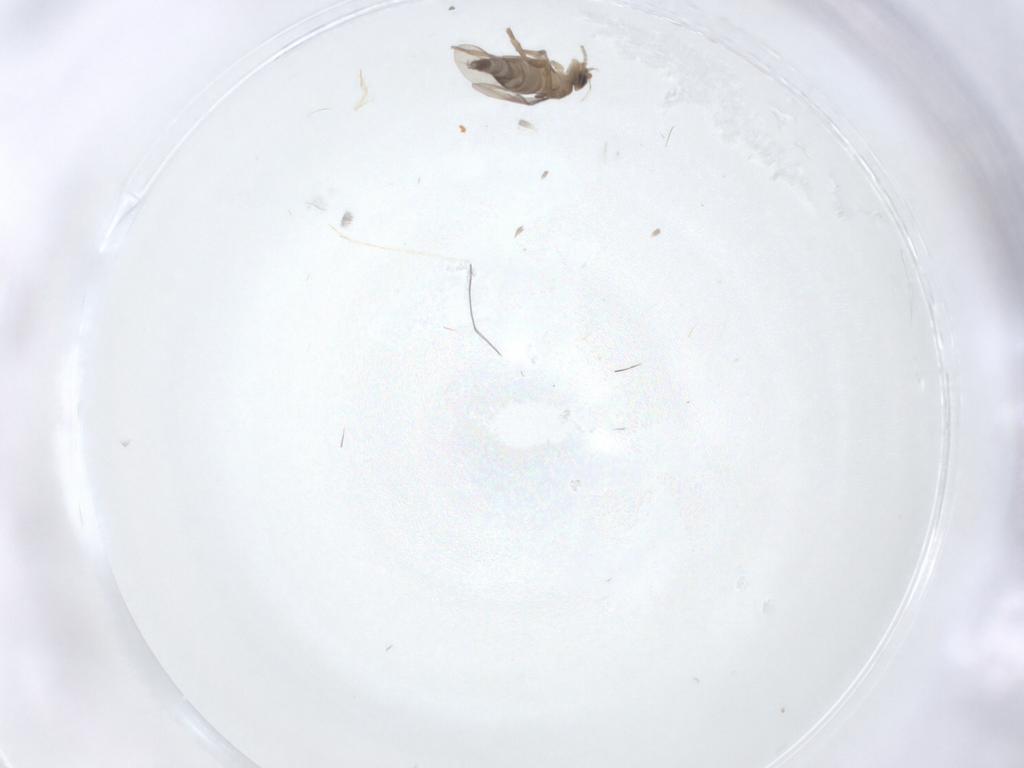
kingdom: Animalia
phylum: Arthropoda
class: Insecta
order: Diptera
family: Phoridae
